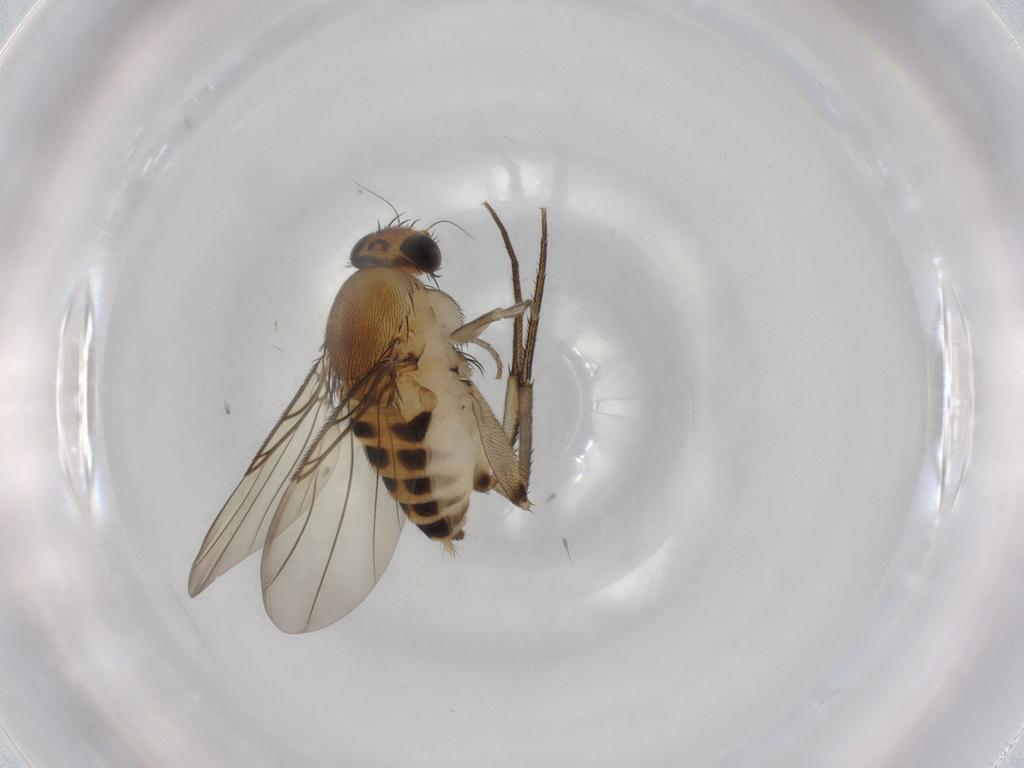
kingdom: Animalia
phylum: Arthropoda
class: Insecta
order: Diptera
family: Phoridae
